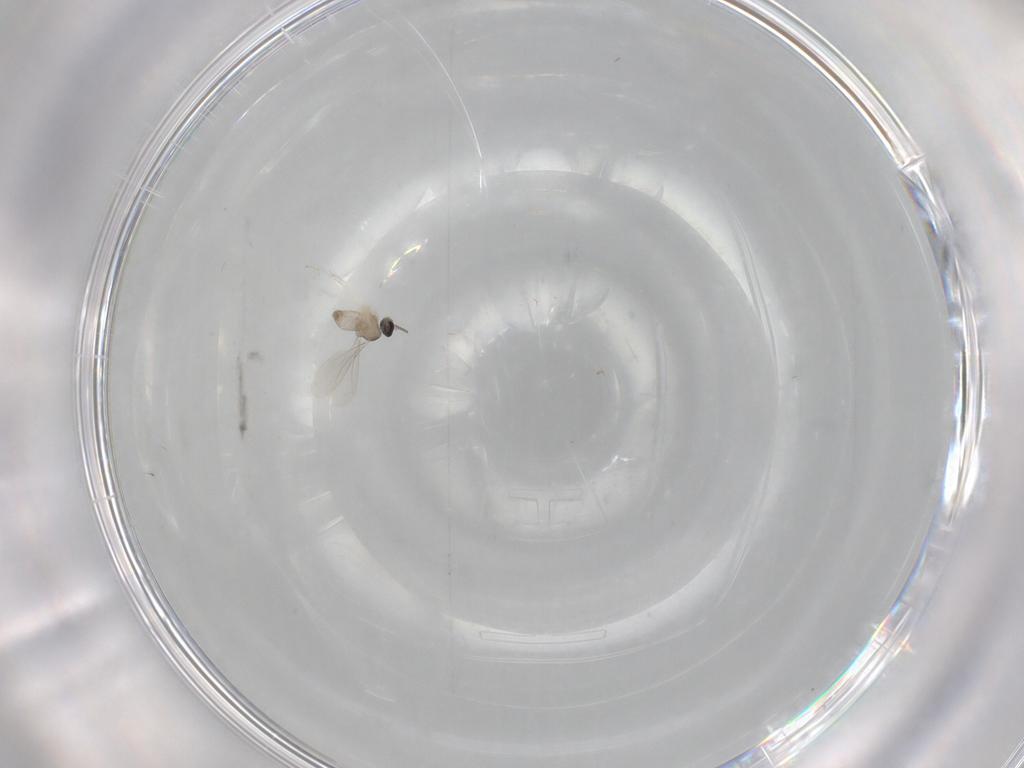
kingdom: Animalia
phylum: Arthropoda
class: Insecta
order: Diptera
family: Cecidomyiidae
